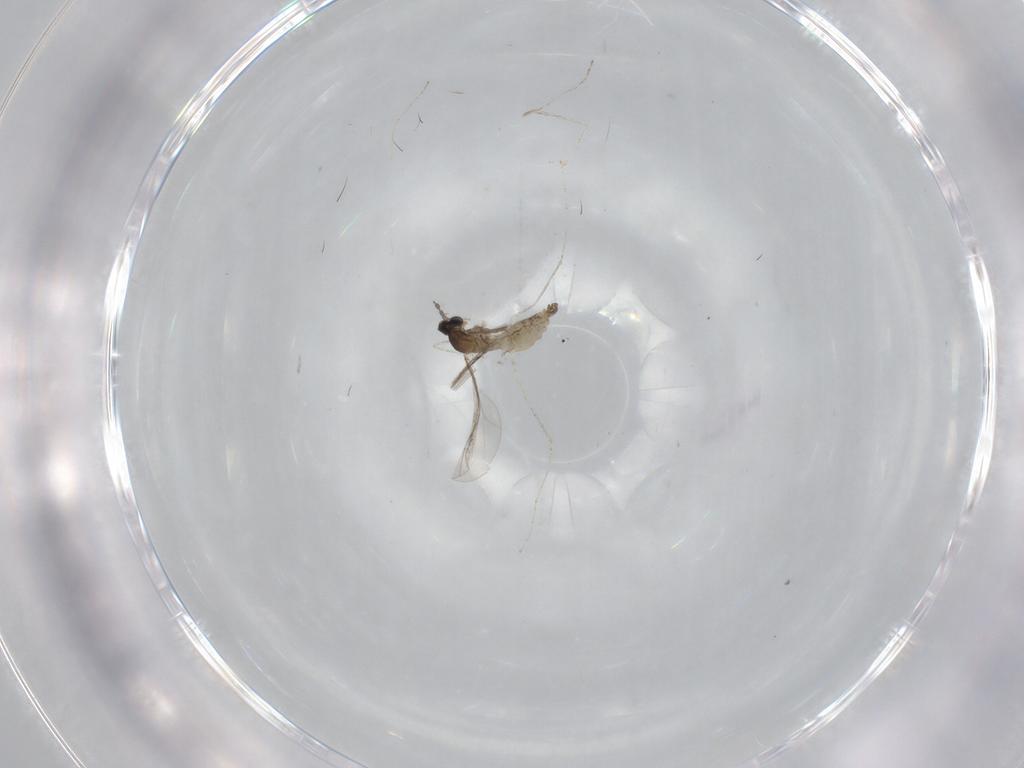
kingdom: Animalia
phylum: Arthropoda
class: Insecta
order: Diptera
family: Cecidomyiidae
